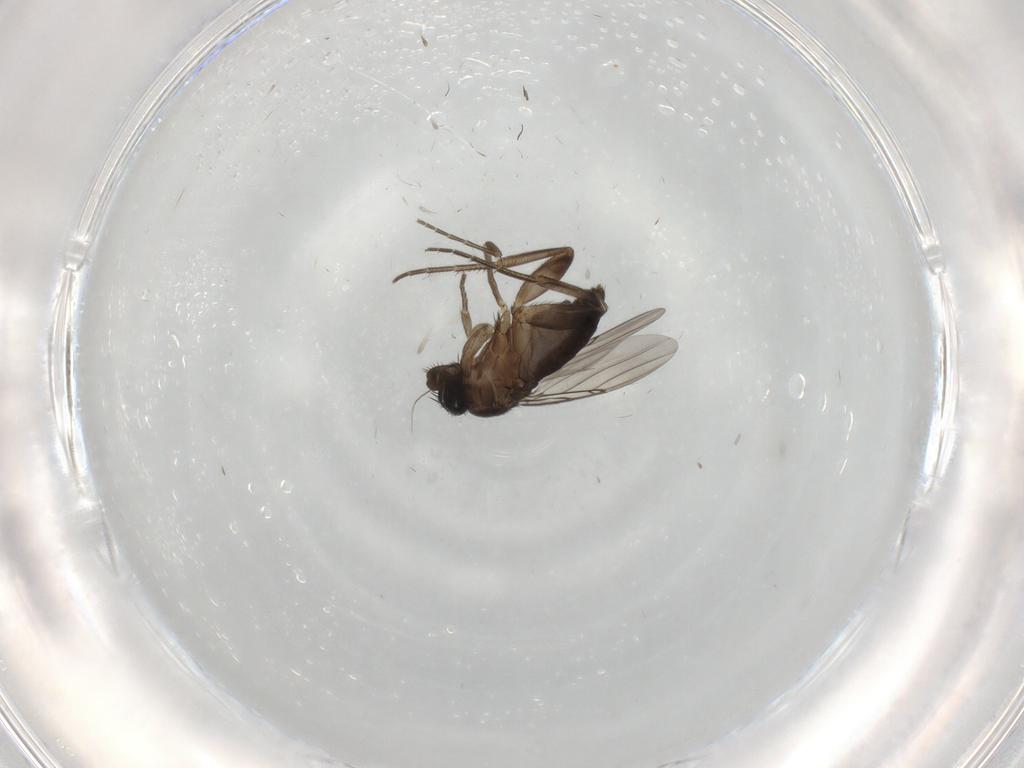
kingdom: Animalia
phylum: Arthropoda
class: Insecta
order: Diptera
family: Phoridae
